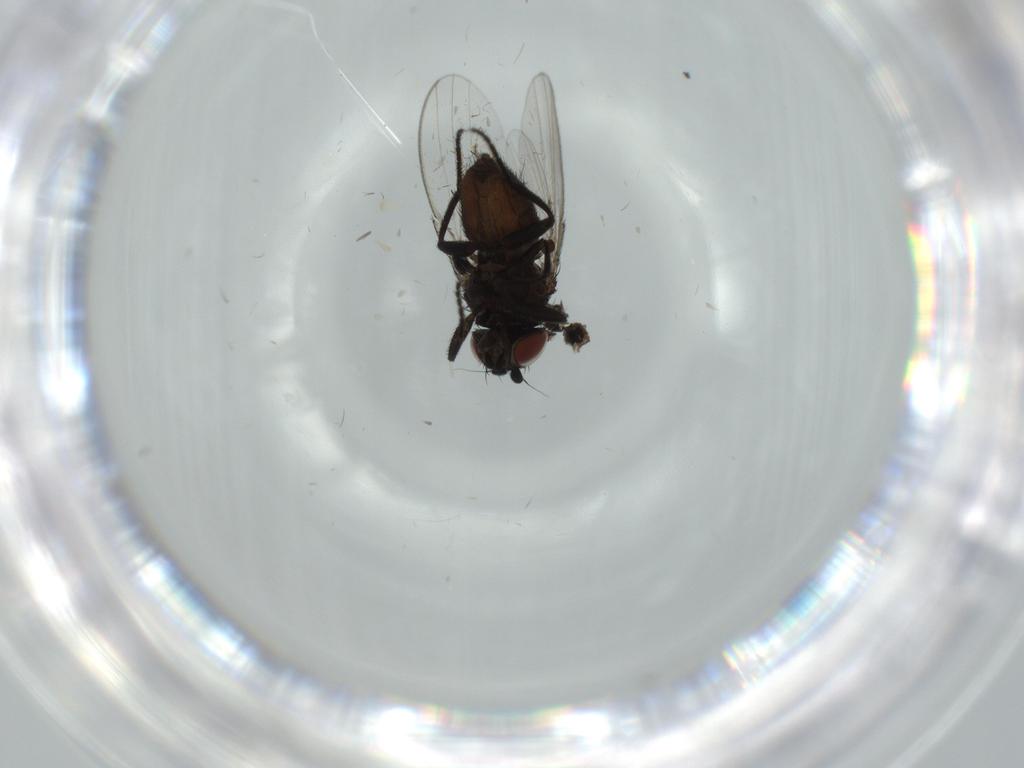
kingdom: Animalia
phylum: Arthropoda
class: Insecta
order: Diptera
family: Milichiidae
